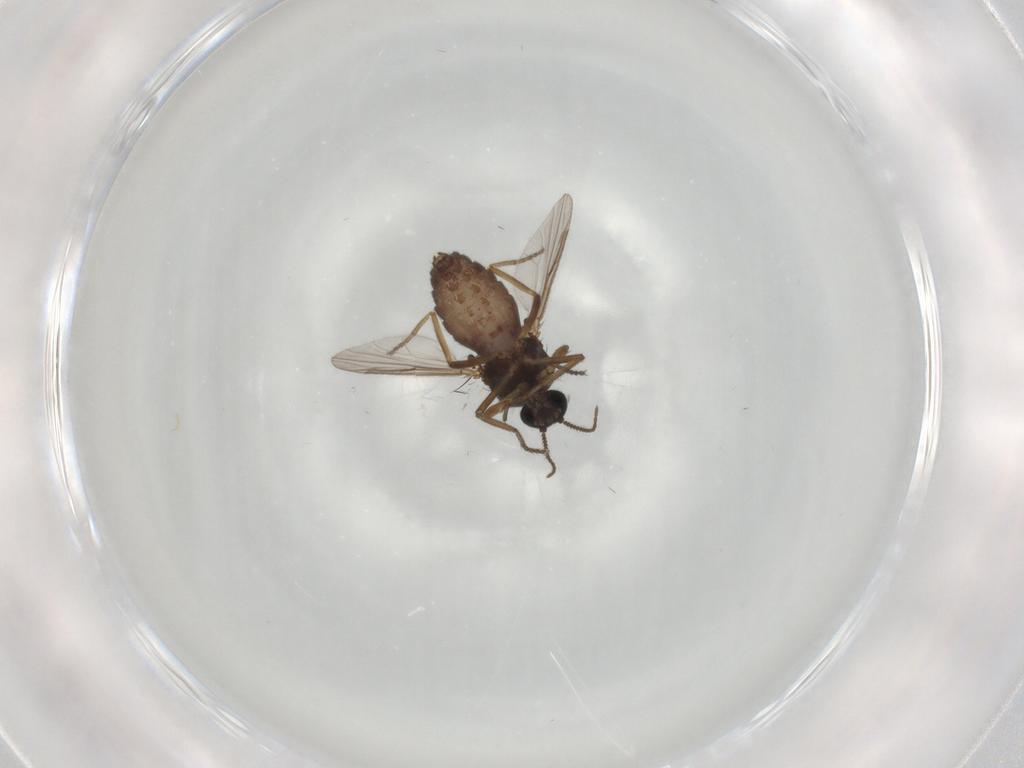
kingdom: Animalia
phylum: Arthropoda
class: Insecta
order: Diptera
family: Ceratopogonidae
